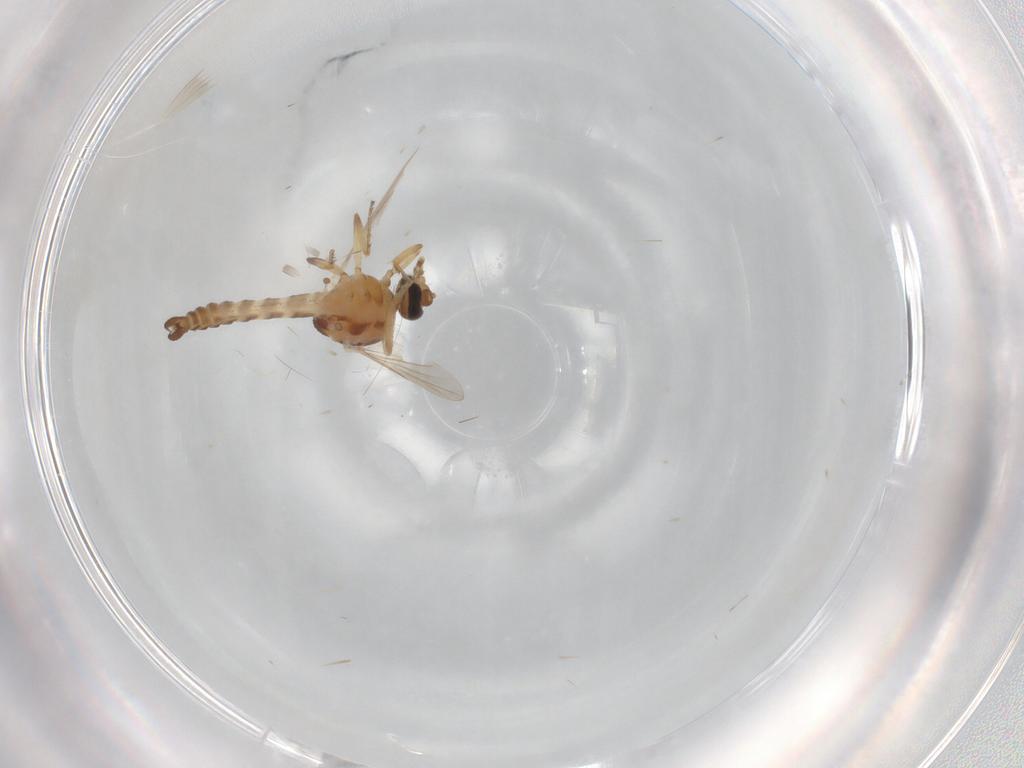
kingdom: Animalia
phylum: Arthropoda
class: Insecta
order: Diptera
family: Ceratopogonidae
